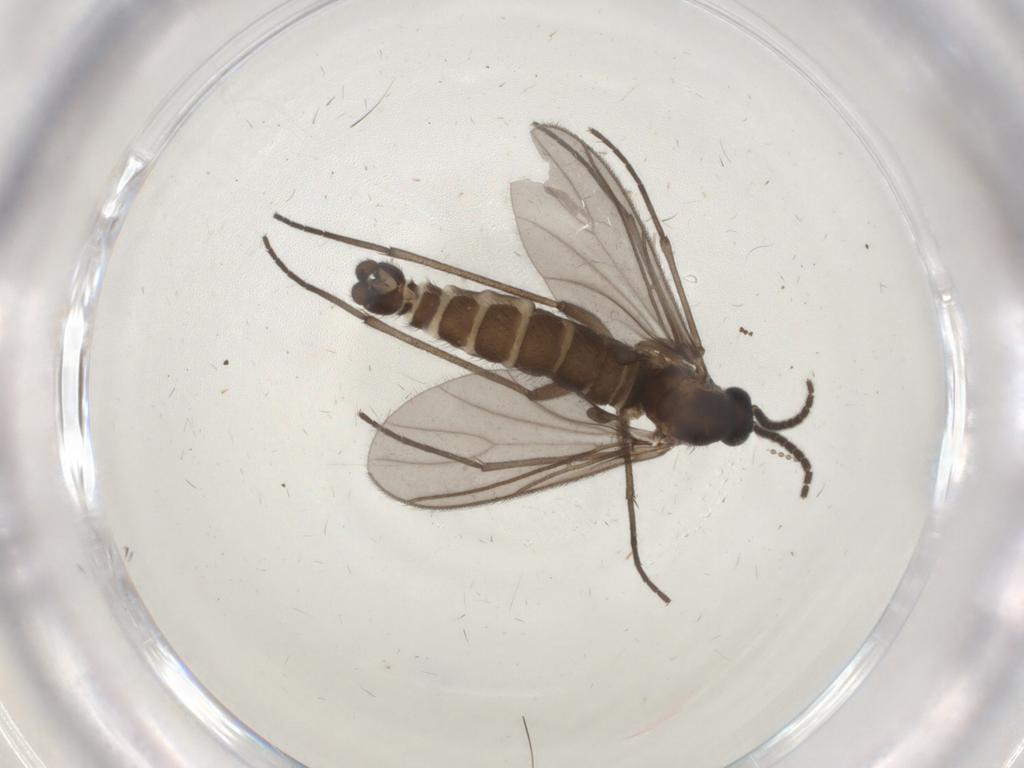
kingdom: Animalia
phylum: Arthropoda
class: Insecta
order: Diptera
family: Sciaridae
